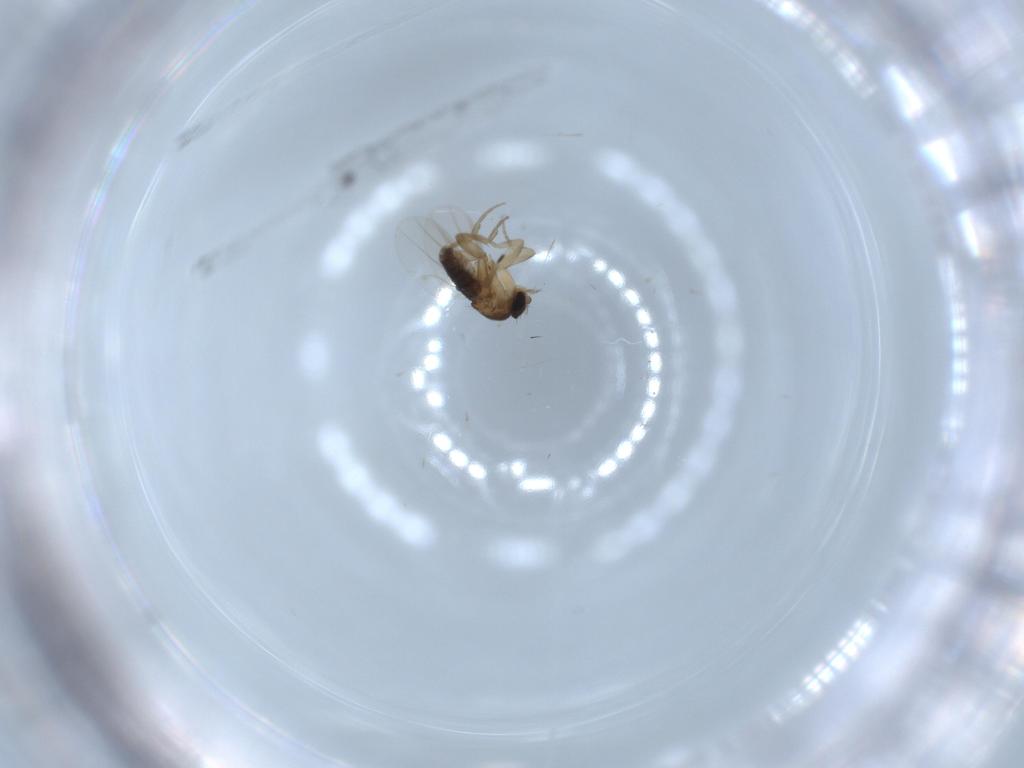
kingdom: Animalia
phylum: Arthropoda
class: Insecta
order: Diptera
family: Phoridae
